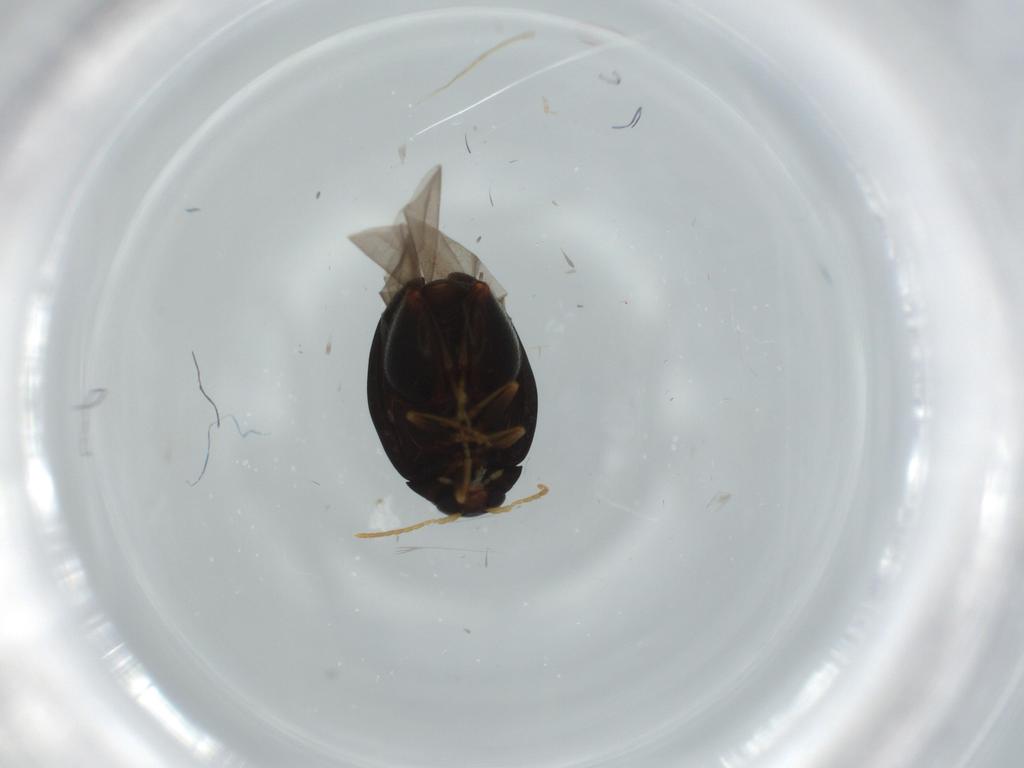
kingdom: Animalia
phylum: Arthropoda
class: Insecta
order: Coleoptera
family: Chrysomelidae
